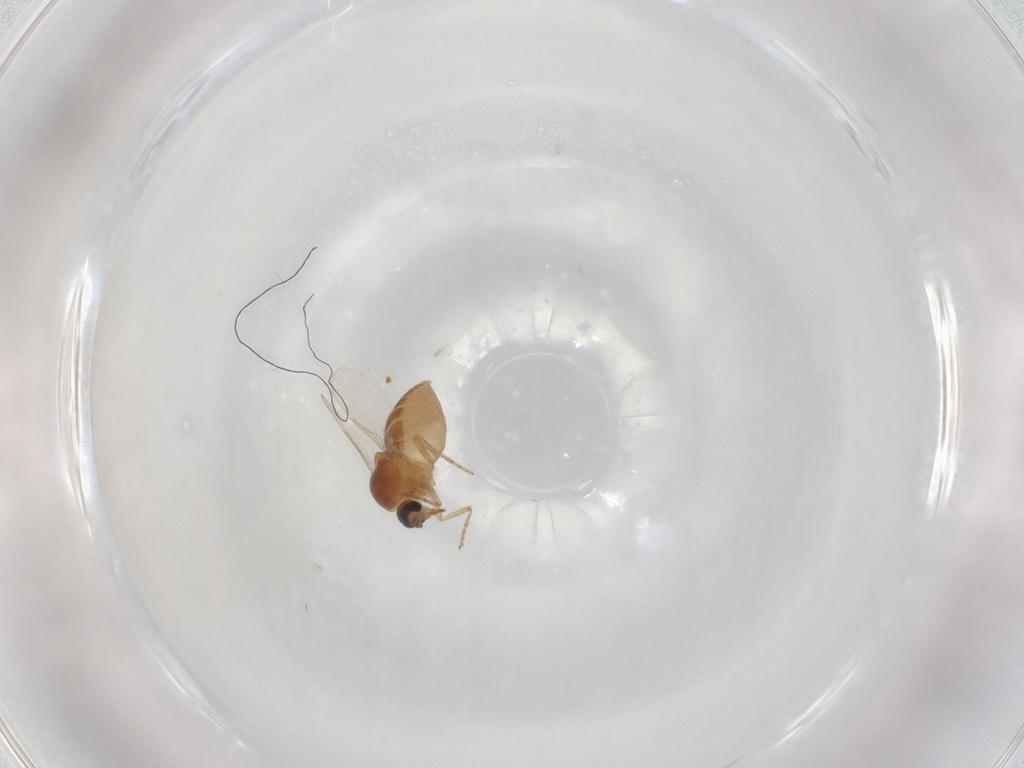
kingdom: Animalia
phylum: Arthropoda
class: Insecta
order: Diptera
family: Ceratopogonidae
